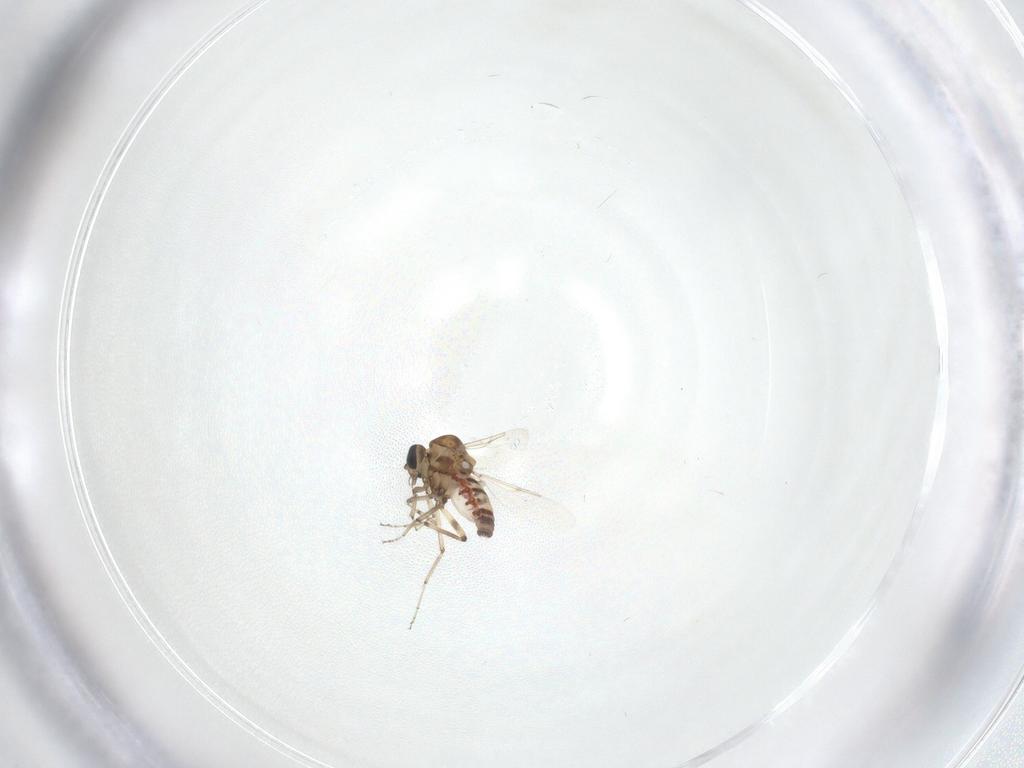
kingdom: Animalia
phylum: Arthropoda
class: Insecta
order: Diptera
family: Ceratopogonidae
